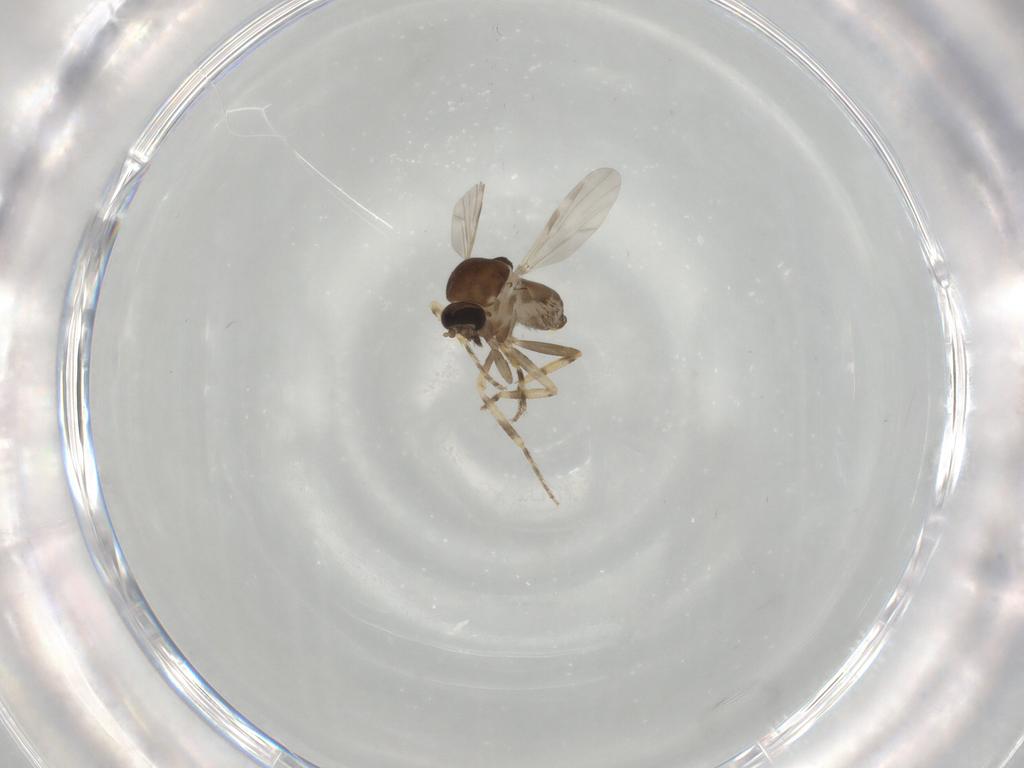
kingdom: Animalia
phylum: Arthropoda
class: Insecta
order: Diptera
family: Ceratopogonidae
